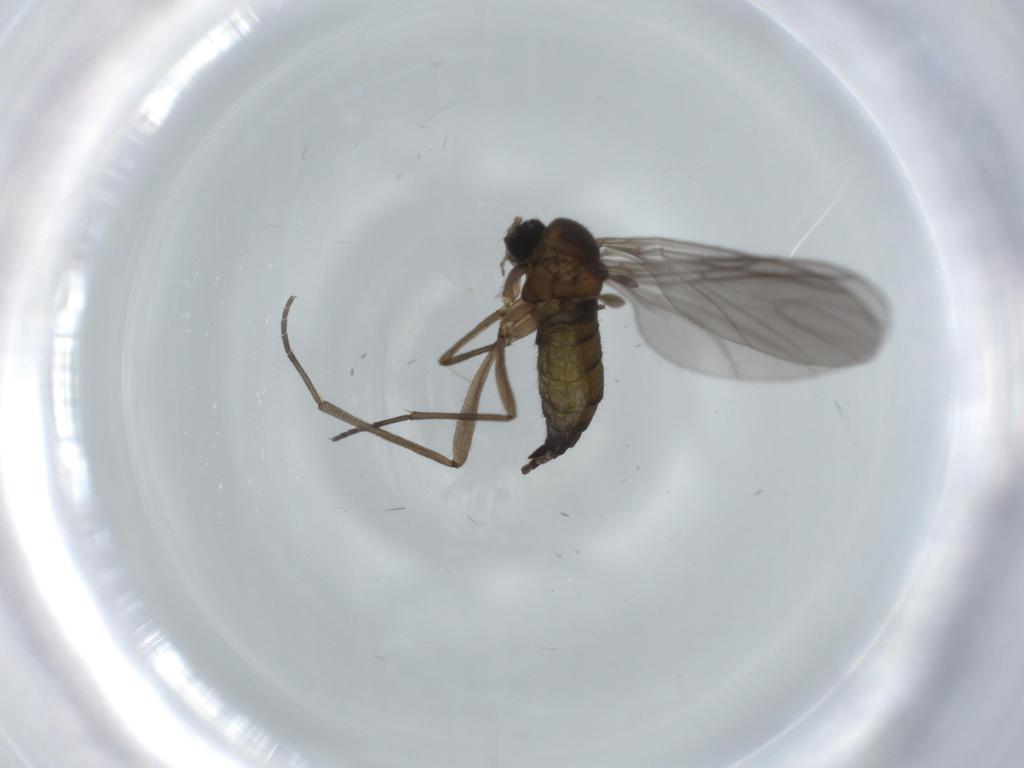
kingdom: Animalia
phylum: Arthropoda
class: Insecta
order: Diptera
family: Sciaridae
